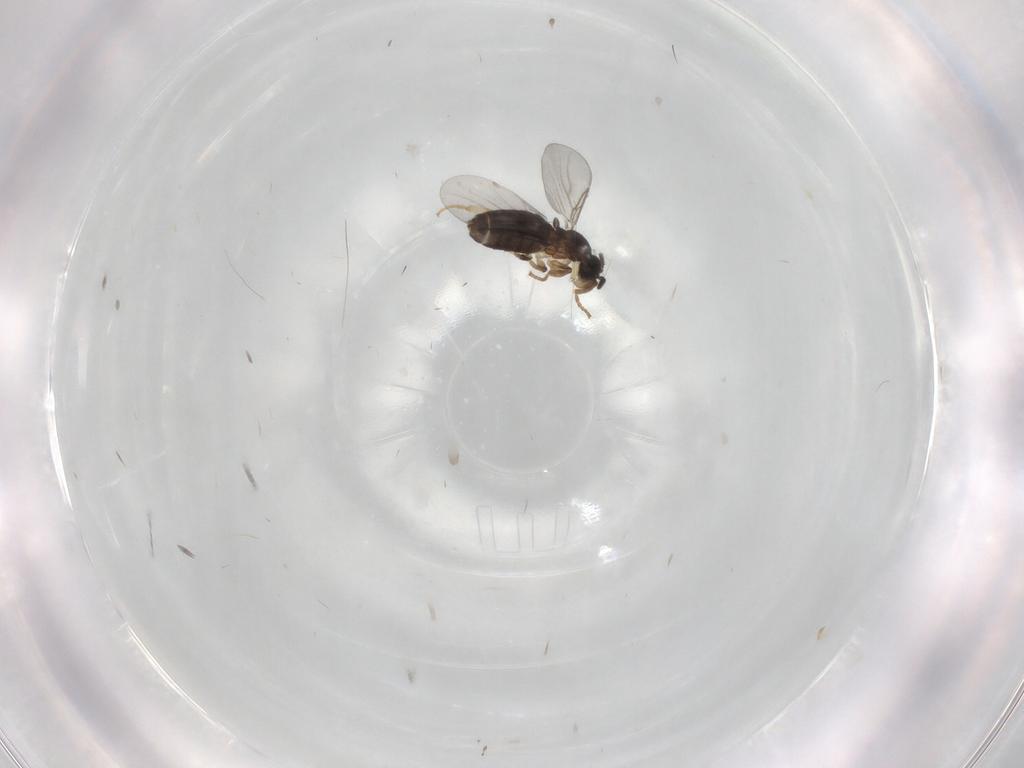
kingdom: Animalia
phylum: Arthropoda
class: Insecta
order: Diptera
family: Scatopsidae
